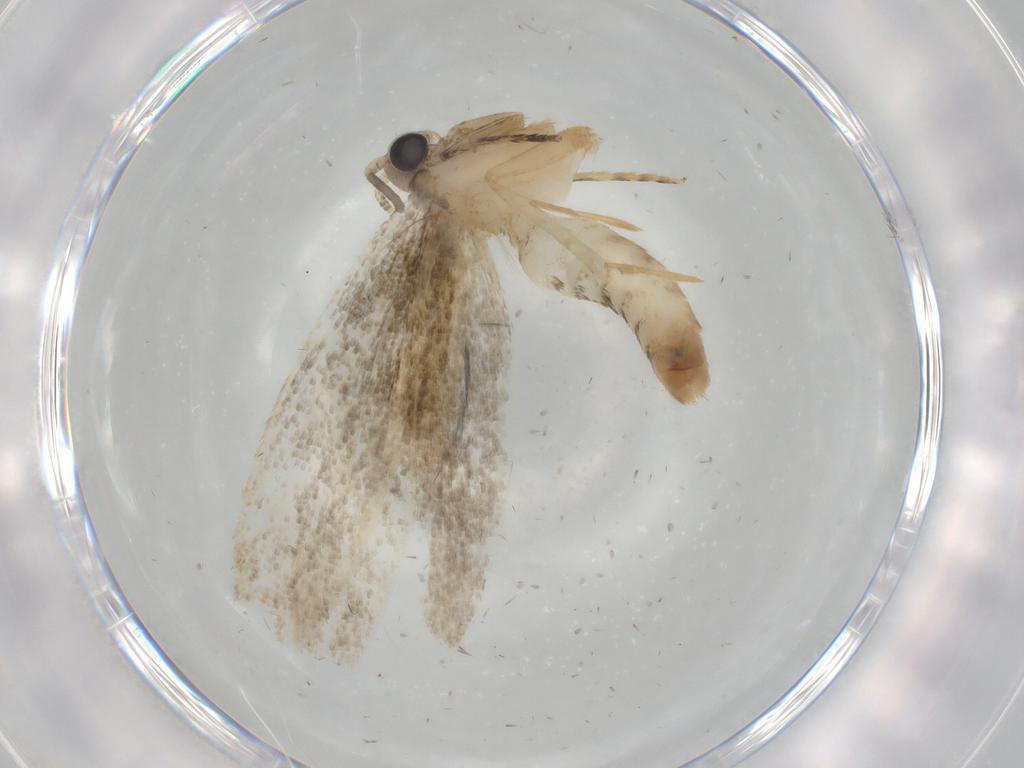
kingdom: Animalia
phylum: Arthropoda
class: Insecta
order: Lepidoptera
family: Tineidae
